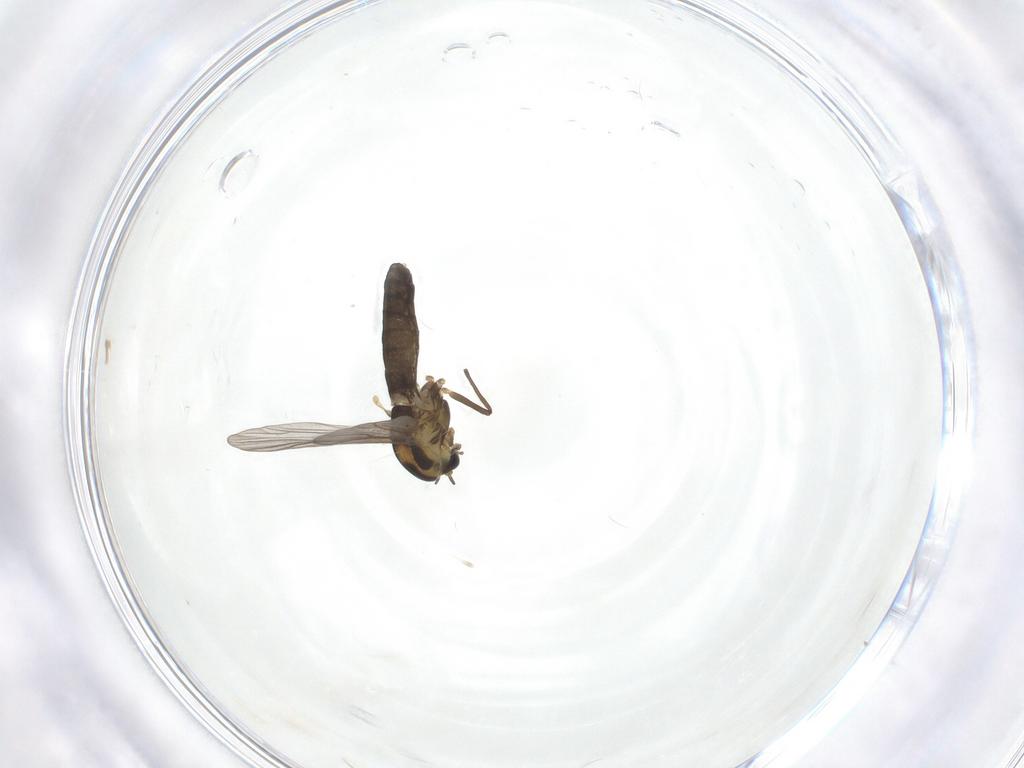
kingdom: Animalia
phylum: Arthropoda
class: Insecta
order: Diptera
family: Chironomidae
